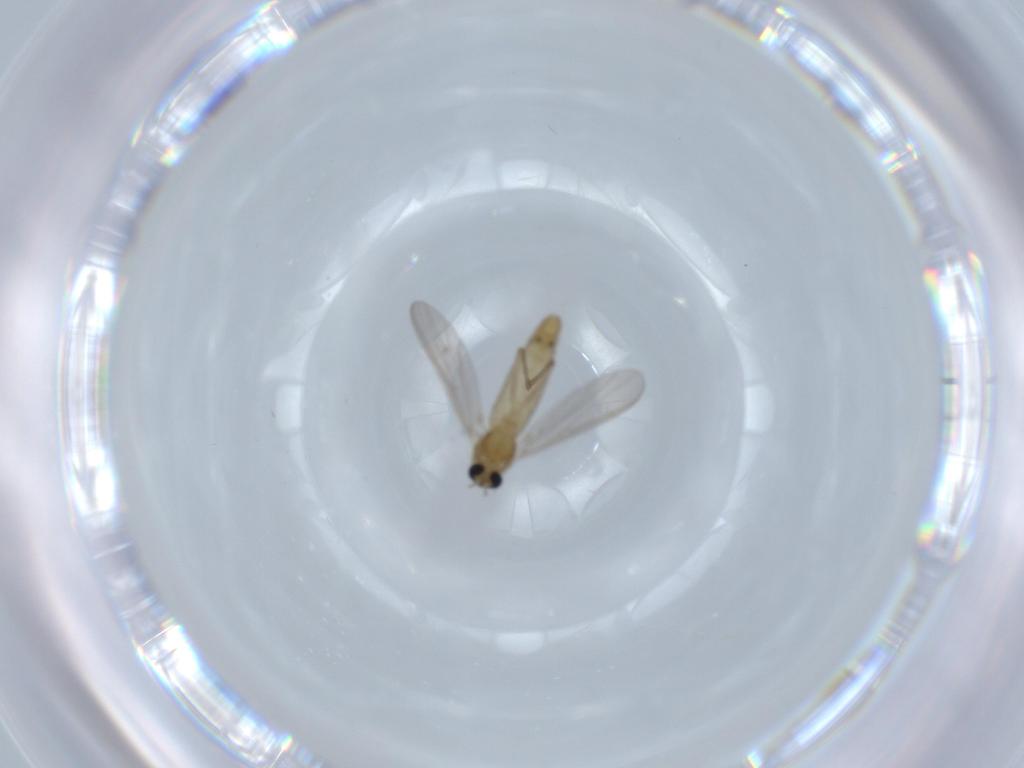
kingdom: Animalia
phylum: Arthropoda
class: Insecta
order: Diptera
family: Chironomidae
